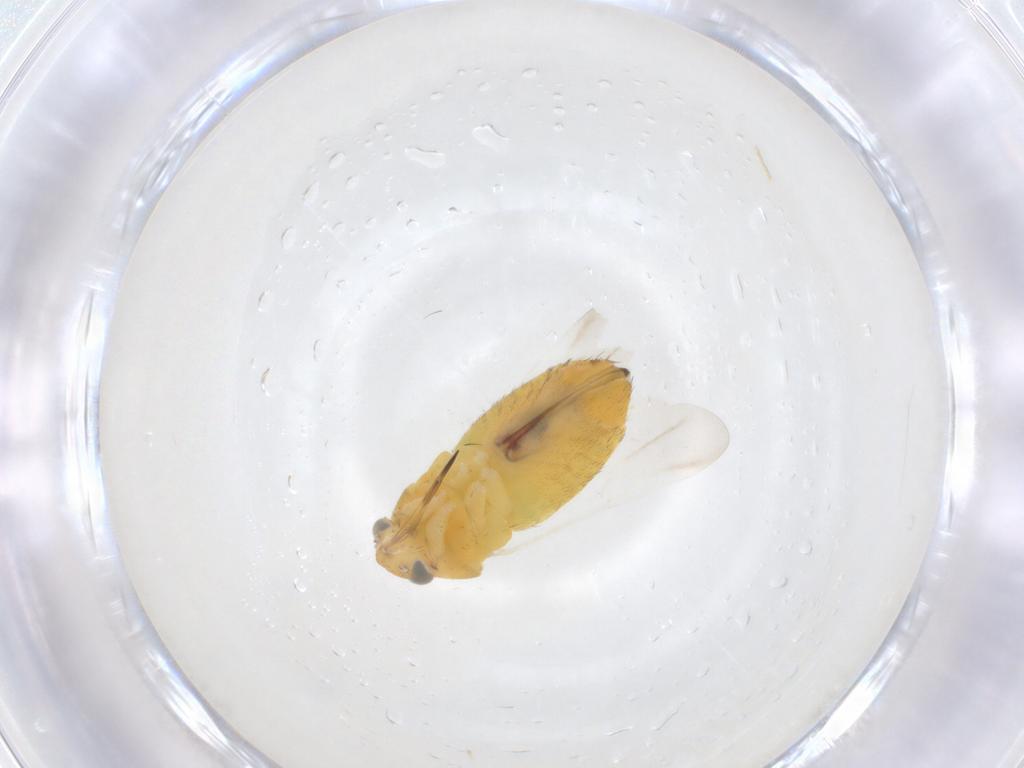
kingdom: Animalia
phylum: Arthropoda
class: Insecta
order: Hemiptera
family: Miridae
